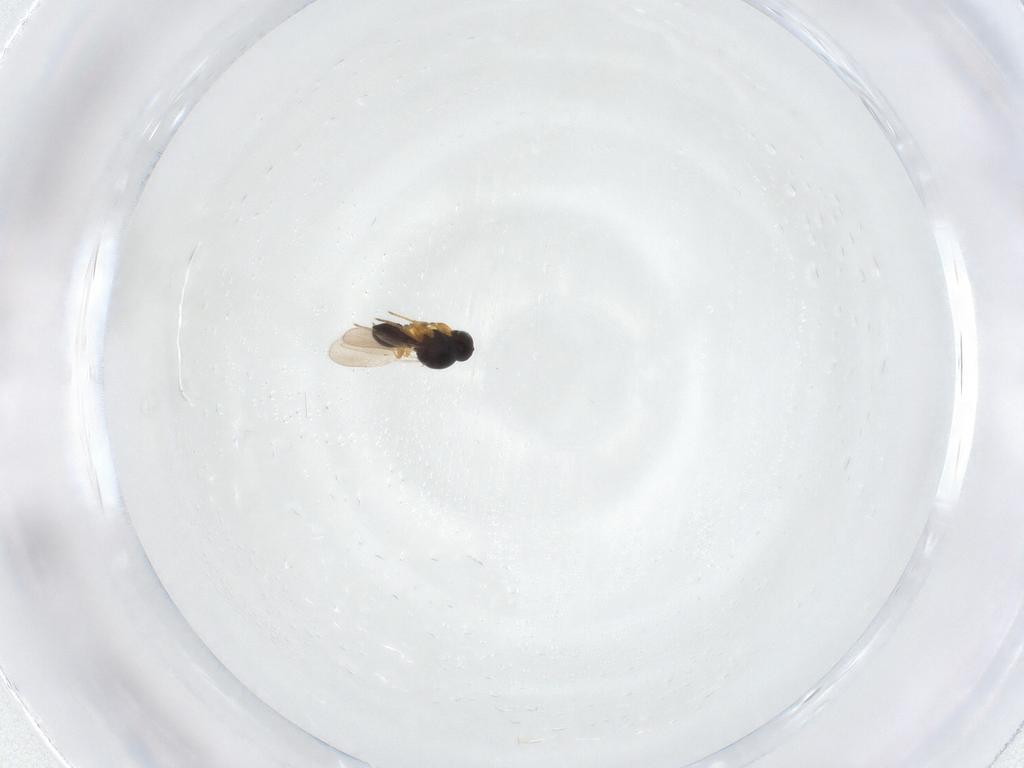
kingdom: Animalia
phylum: Arthropoda
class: Insecta
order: Hymenoptera
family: Platygastridae
